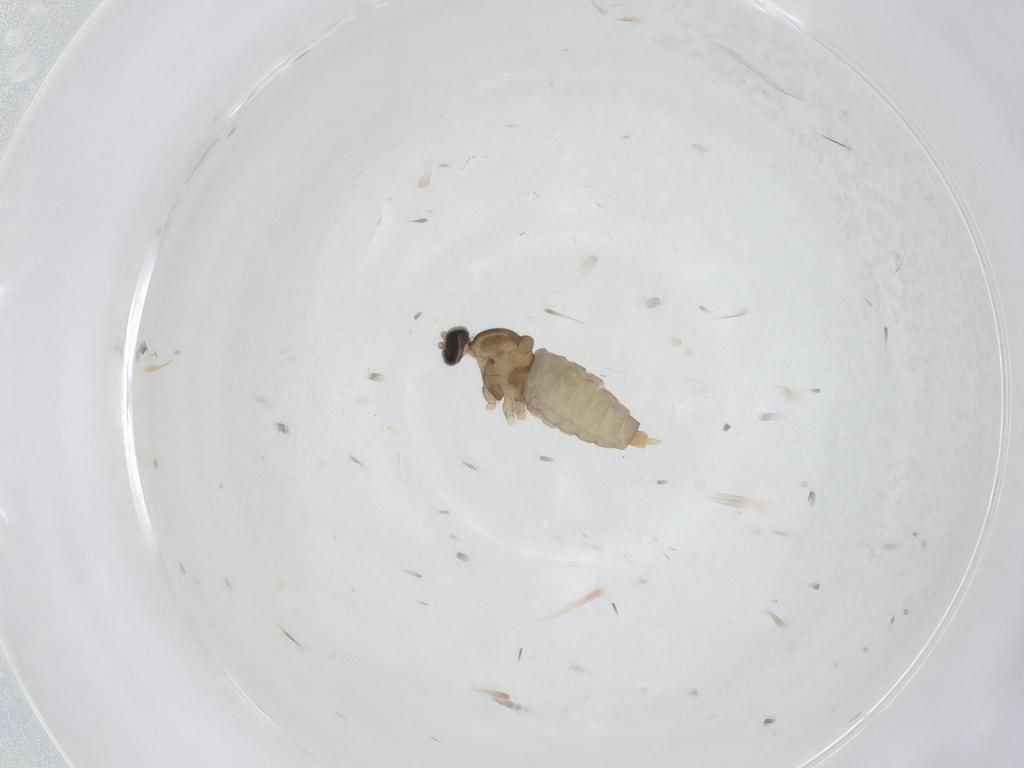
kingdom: Animalia
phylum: Arthropoda
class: Insecta
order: Diptera
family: Cecidomyiidae
